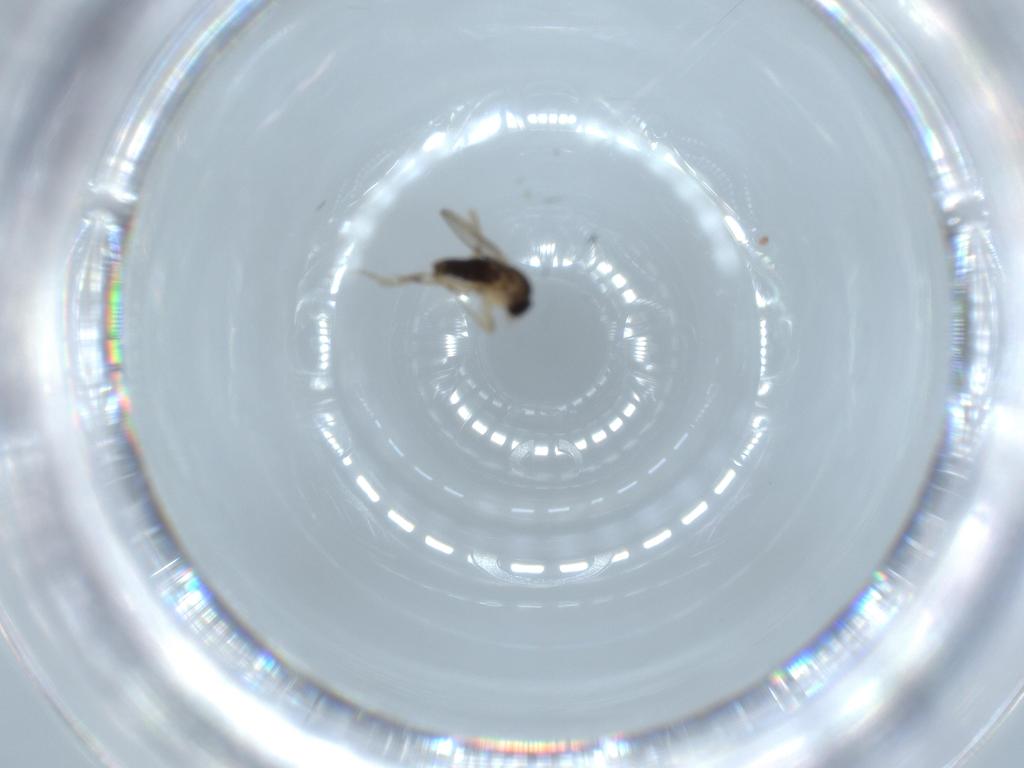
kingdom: Animalia
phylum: Arthropoda
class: Insecta
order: Diptera
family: Phoridae
